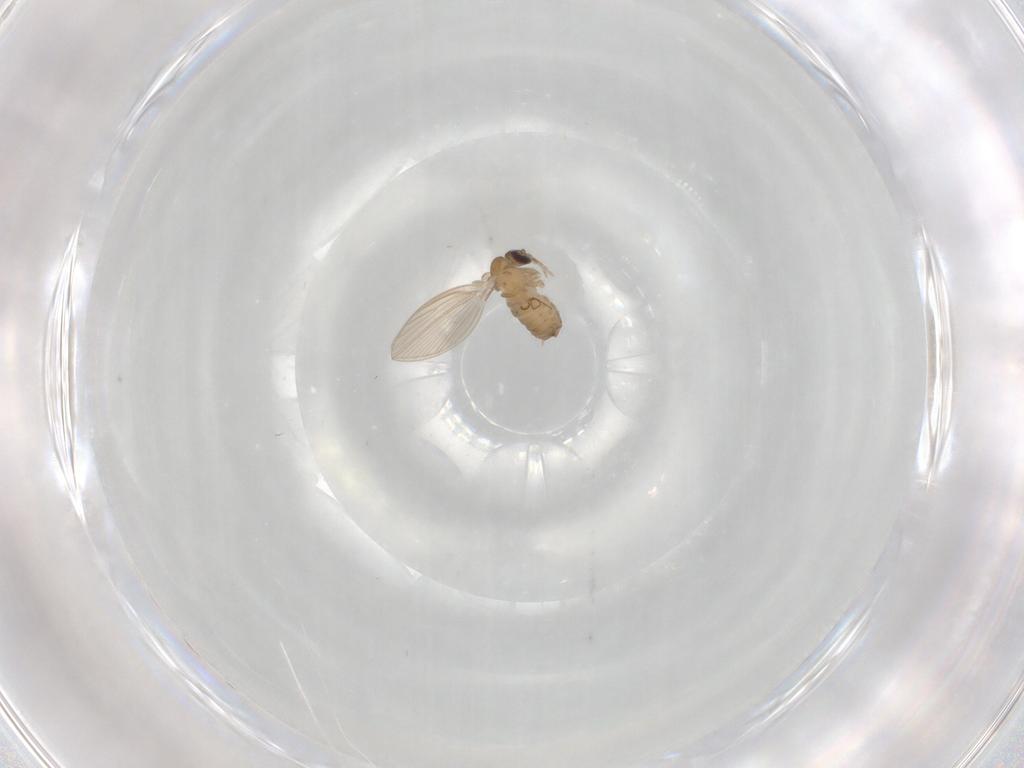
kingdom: Animalia
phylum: Arthropoda
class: Insecta
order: Diptera
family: Psychodidae
